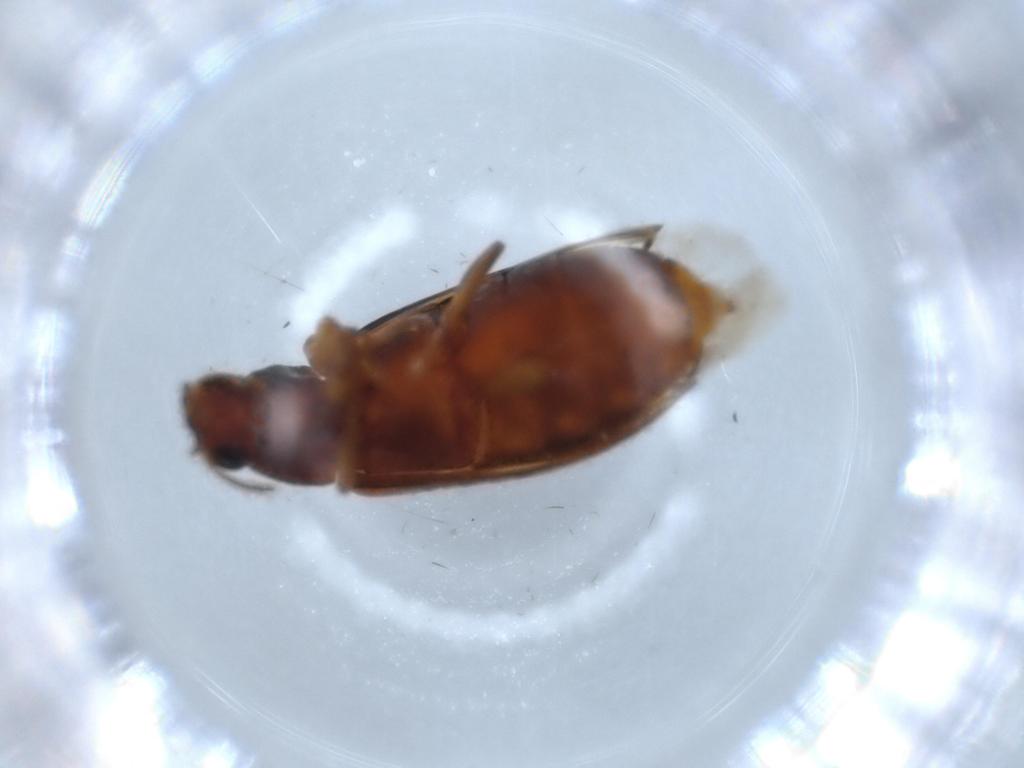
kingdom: Animalia
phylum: Arthropoda
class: Insecta
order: Coleoptera
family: Mycteridae
